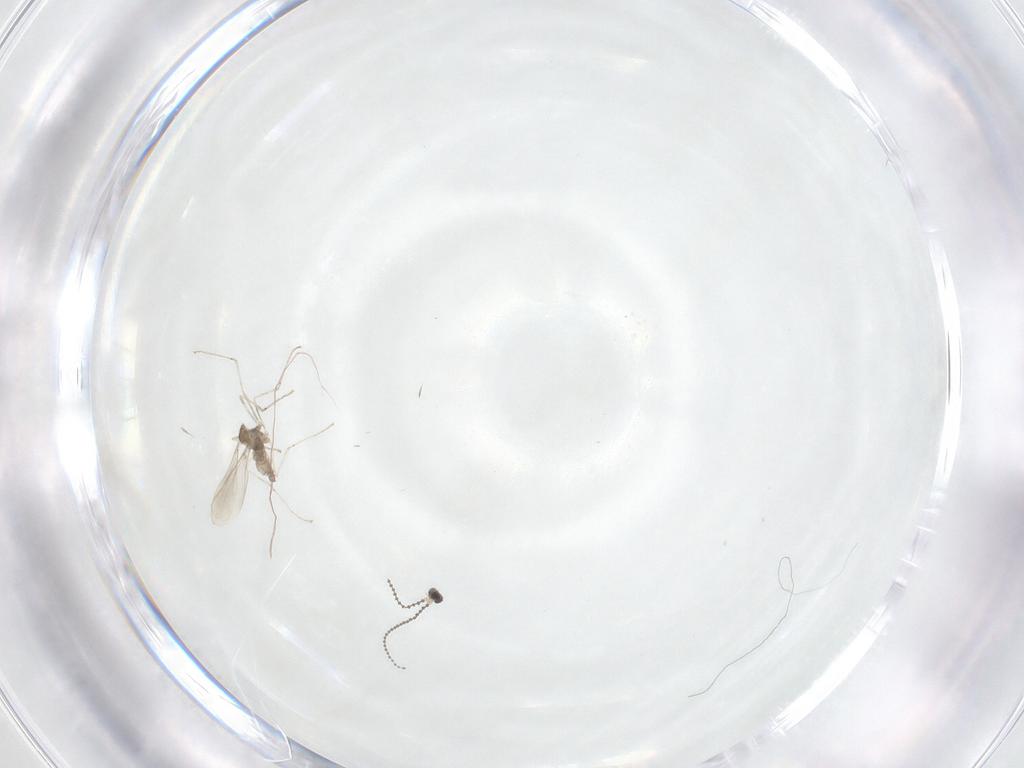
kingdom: Animalia
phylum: Arthropoda
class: Insecta
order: Diptera
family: Cecidomyiidae
